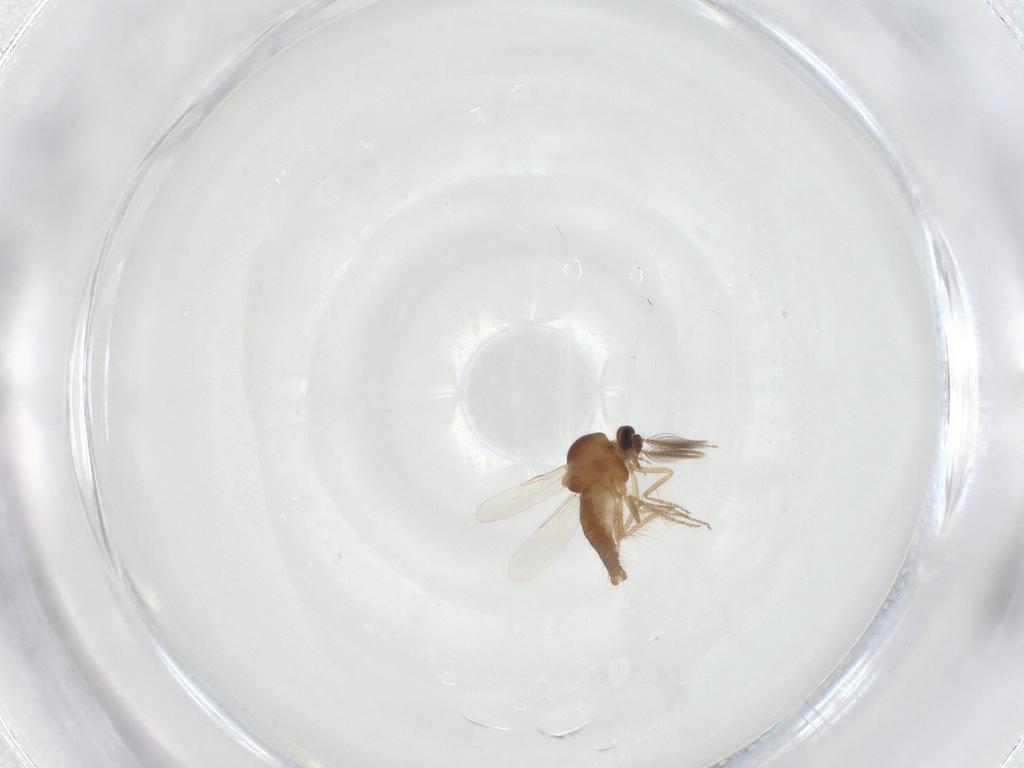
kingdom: Animalia
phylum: Arthropoda
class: Insecta
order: Diptera
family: Ceratopogonidae
